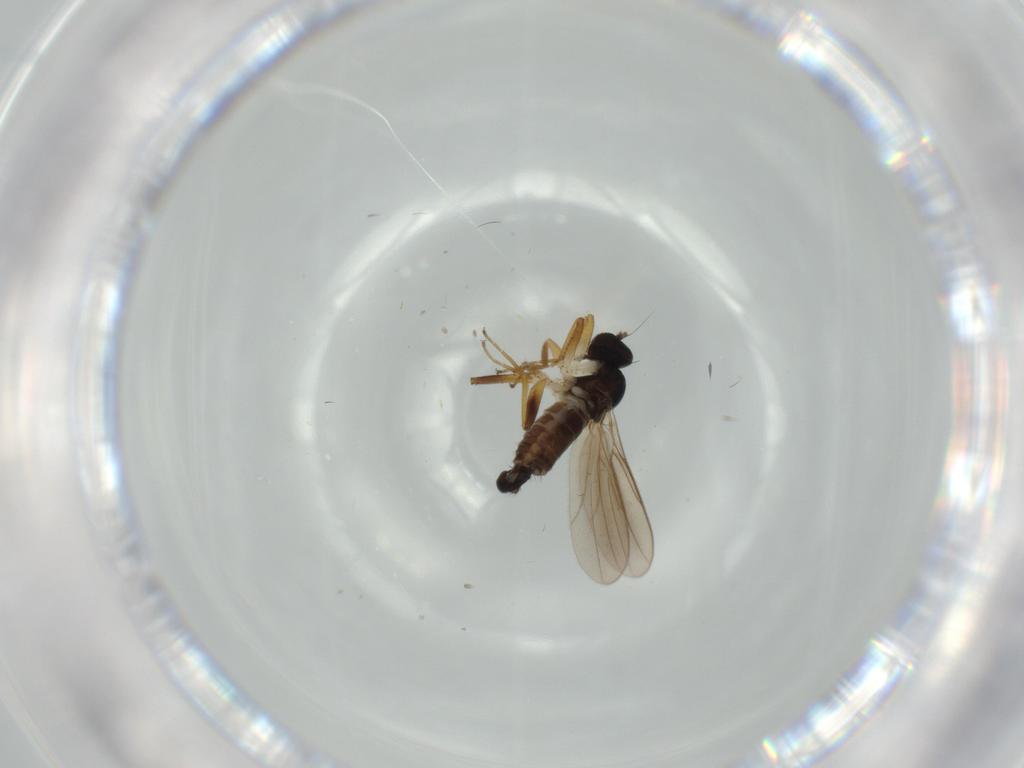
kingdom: Animalia
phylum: Arthropoda
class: Insecta
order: Diptera
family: Hybotidae
